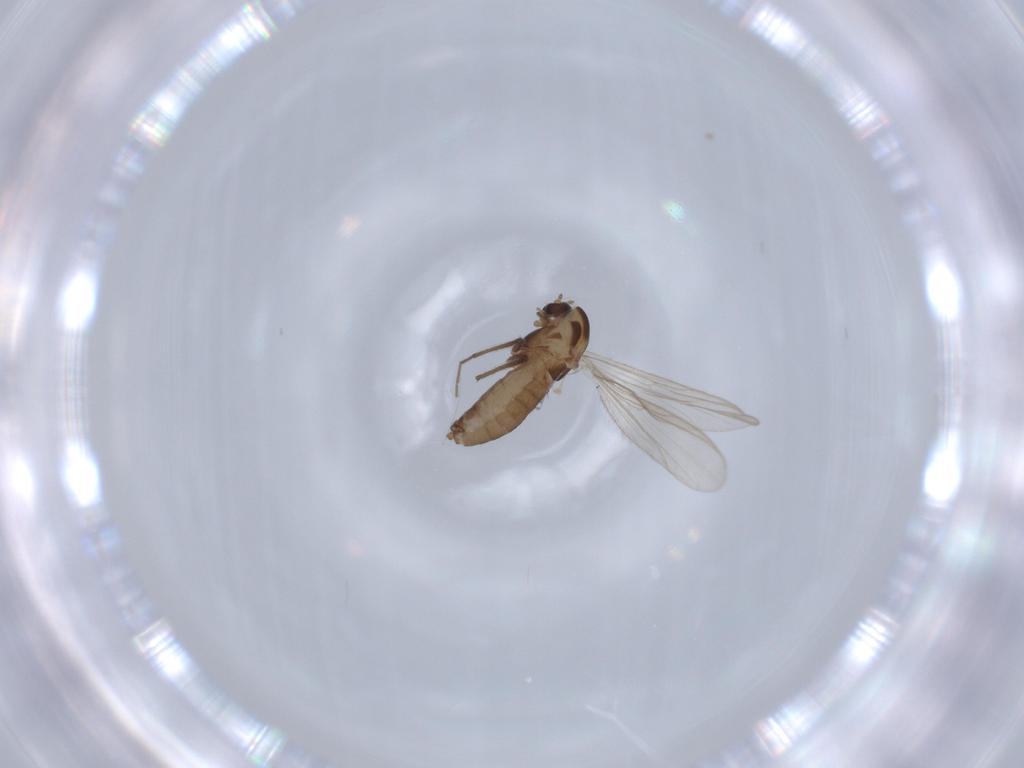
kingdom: Animalia
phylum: Arthropoda
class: Insecta
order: Diptera
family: Chironomidae
